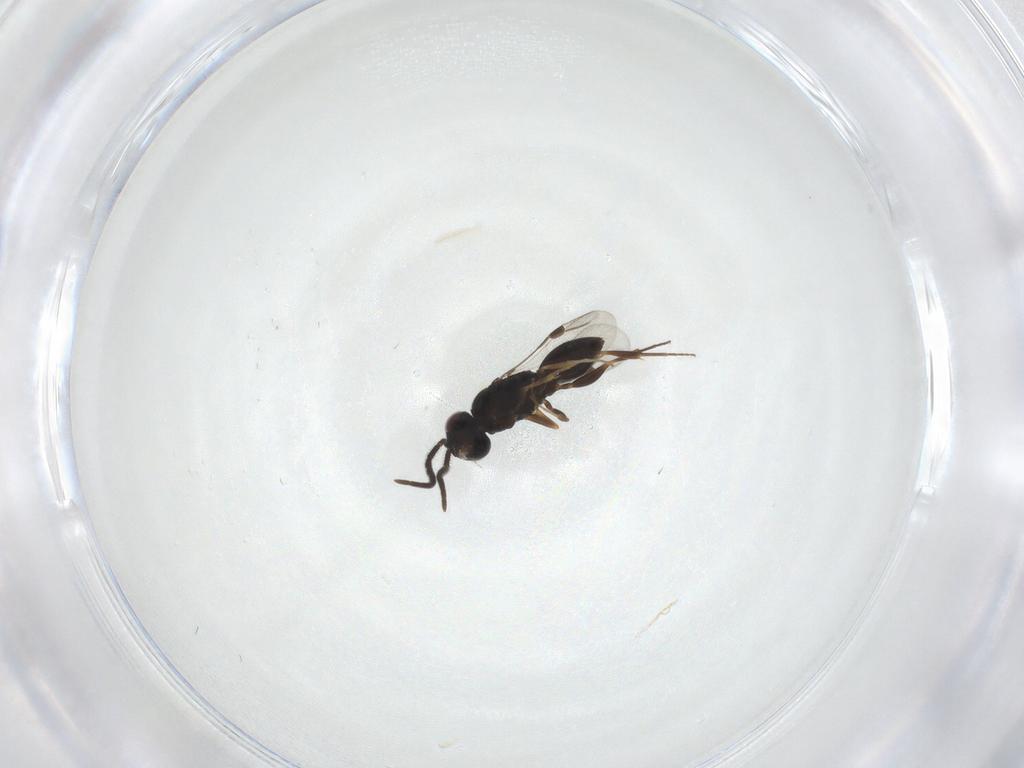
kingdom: Animalia
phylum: Arthropoda
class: Insecta
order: Hymenoptera
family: Megaspilidae
